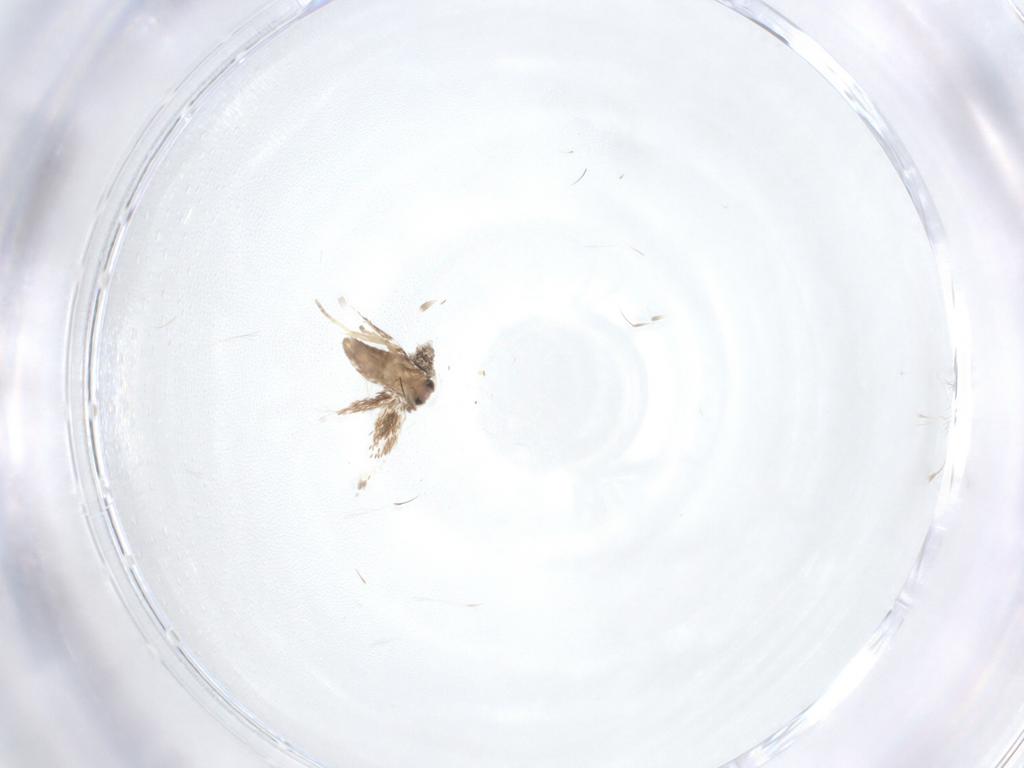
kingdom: Animalia
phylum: Arthropoda
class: Insecta
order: Lepidoptera
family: Nepticulidae
